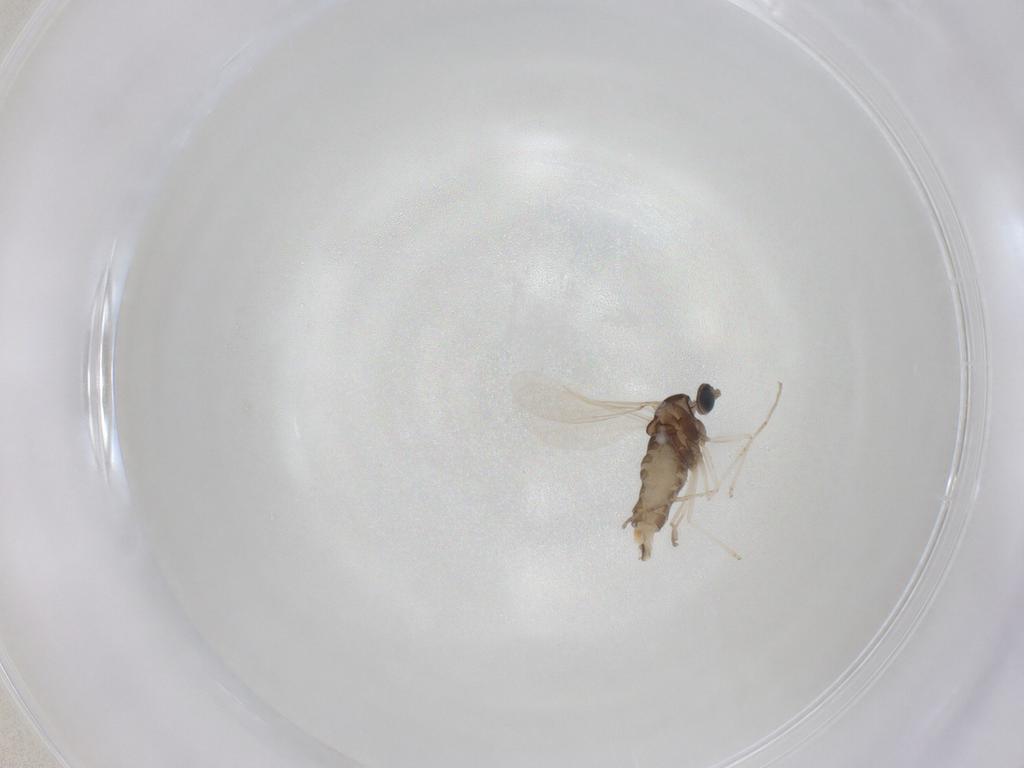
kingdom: Animalia
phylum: Arthropoda
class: Insecta
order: Diptera
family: Cecidomyiidae
